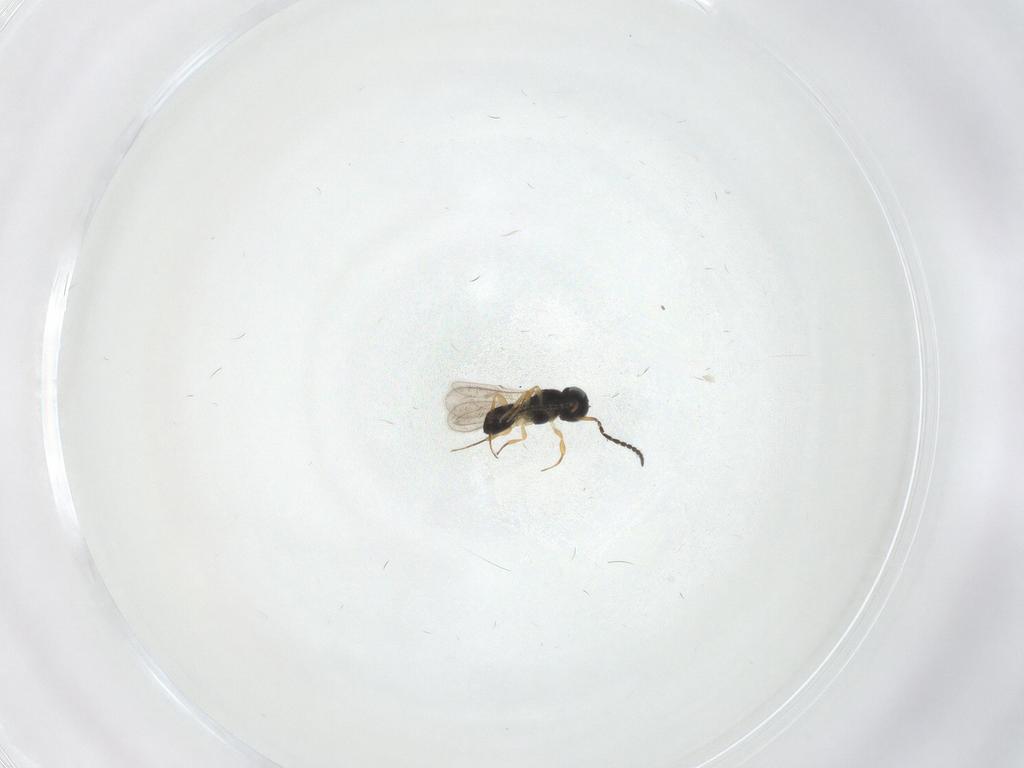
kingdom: Animalia
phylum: Arthropoda
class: Insecta
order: Hymenoptera
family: Scelionidae
